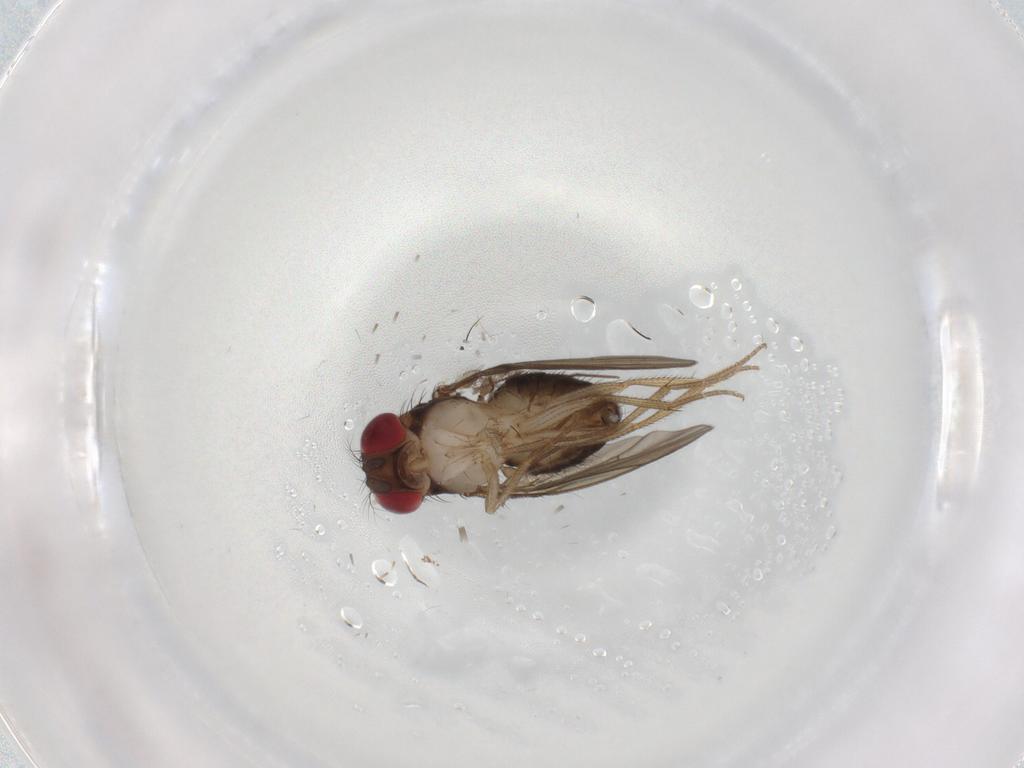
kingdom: Animalia
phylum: Arthropoda
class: Insecta
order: Diptera
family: Drosophilidae
